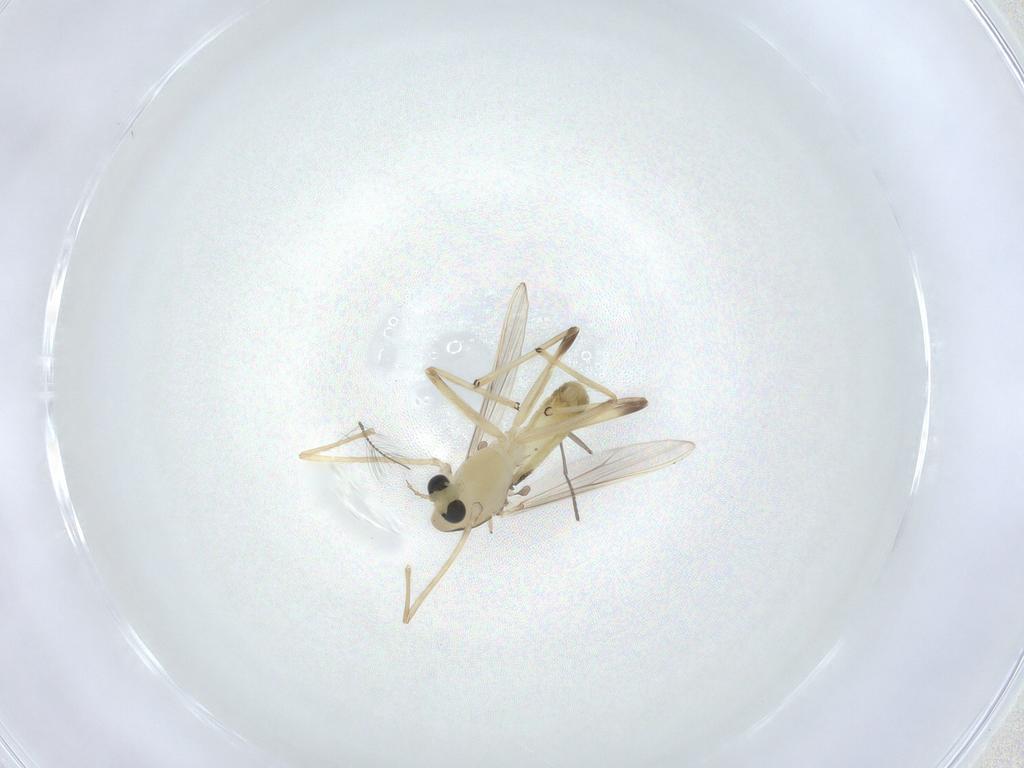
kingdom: Animalia
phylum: Arthropoda
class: Insecta
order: Diptera
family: Chironomidae
